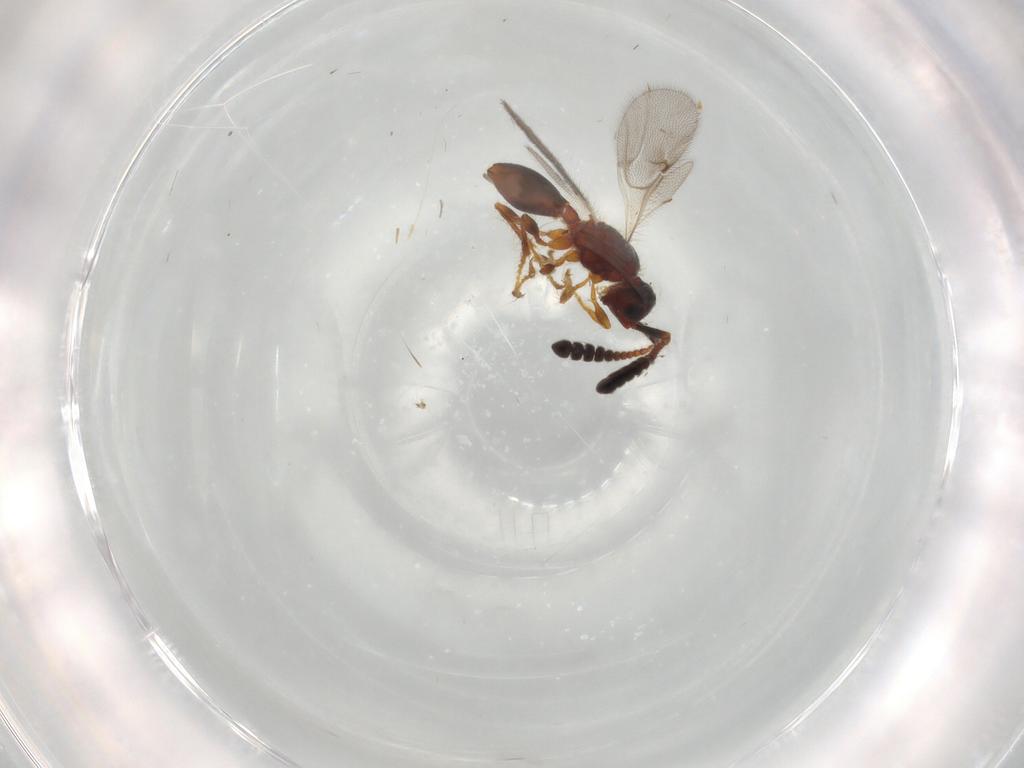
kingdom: Animalia
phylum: Arthropoda
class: Insecta
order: Hymenoptera
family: Diapriidae
